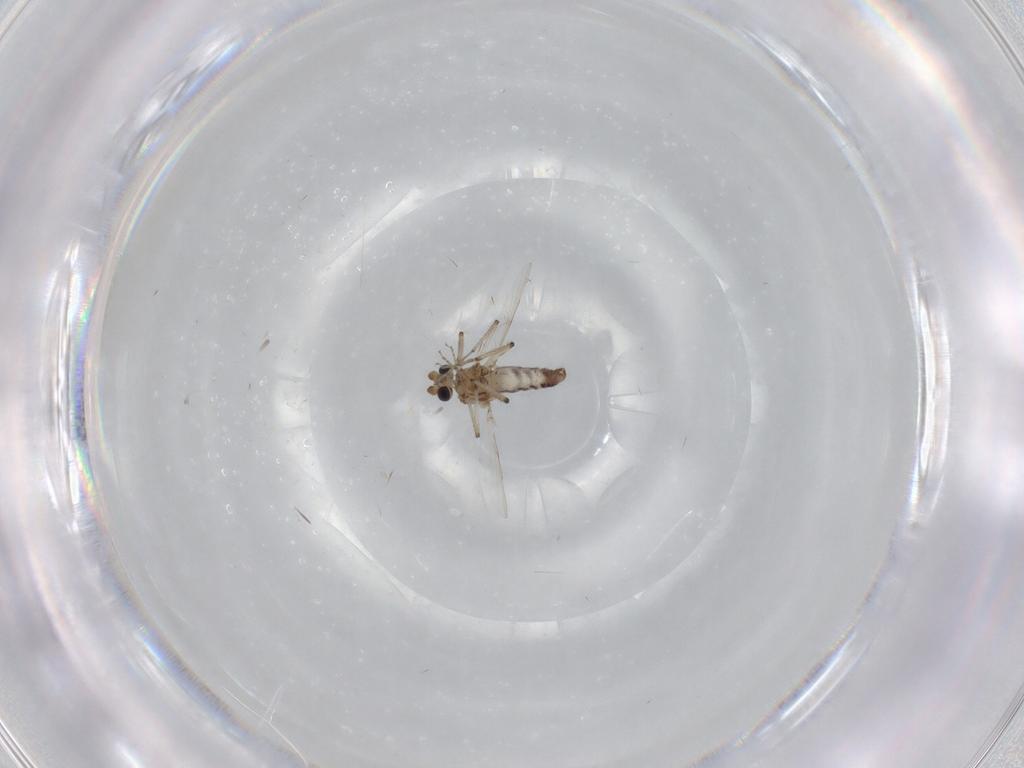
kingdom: Animalia
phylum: Arthropoda
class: Insecta
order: Diptera
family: Ceratopogonidae
